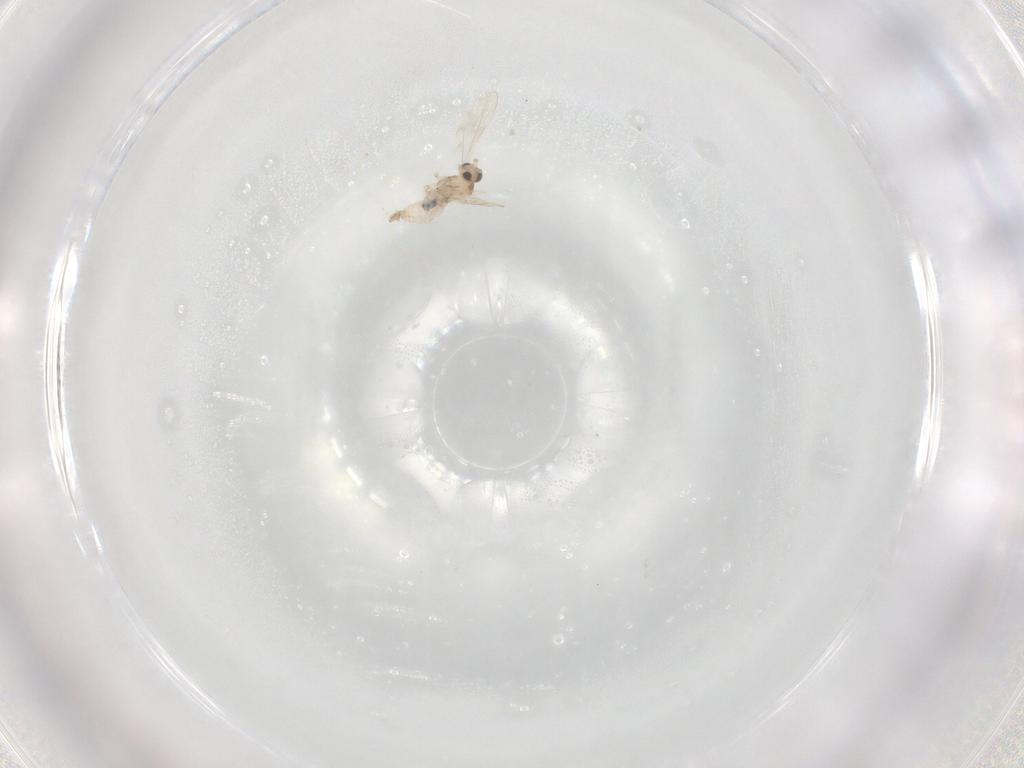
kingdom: Animalia
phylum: Arthropoda
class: Insecta
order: Diptera
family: Cecidomyiidae
